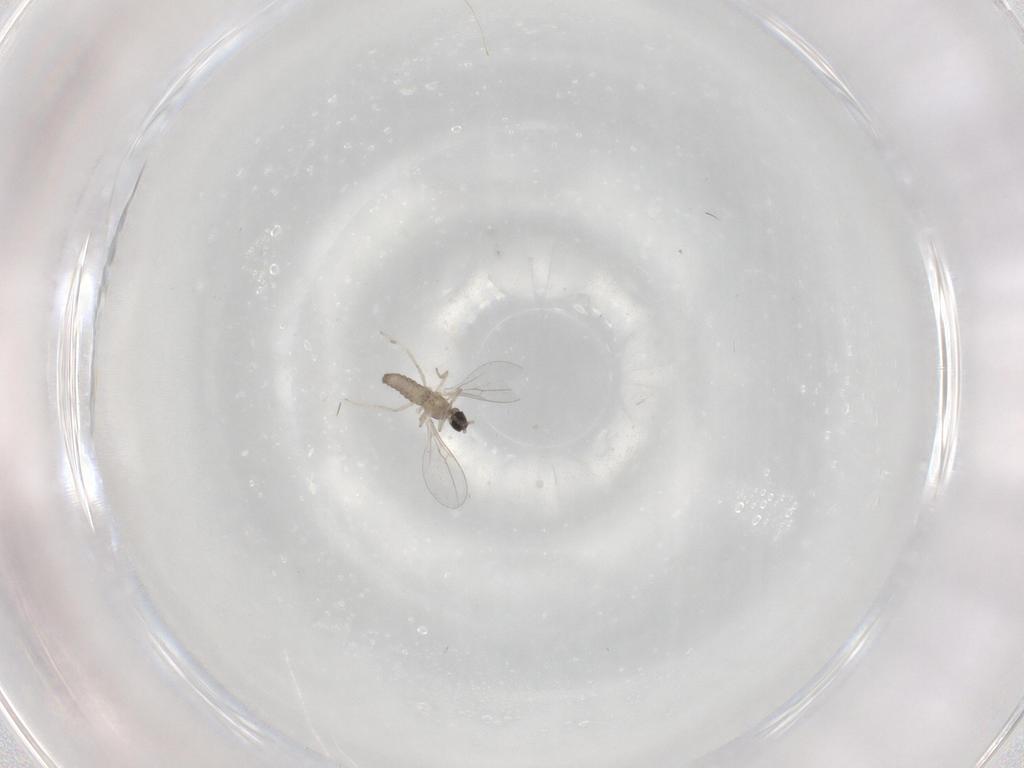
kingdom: Animalia
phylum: Arthropoda
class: Insecta
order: Diptera
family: Cecidomyiidae
